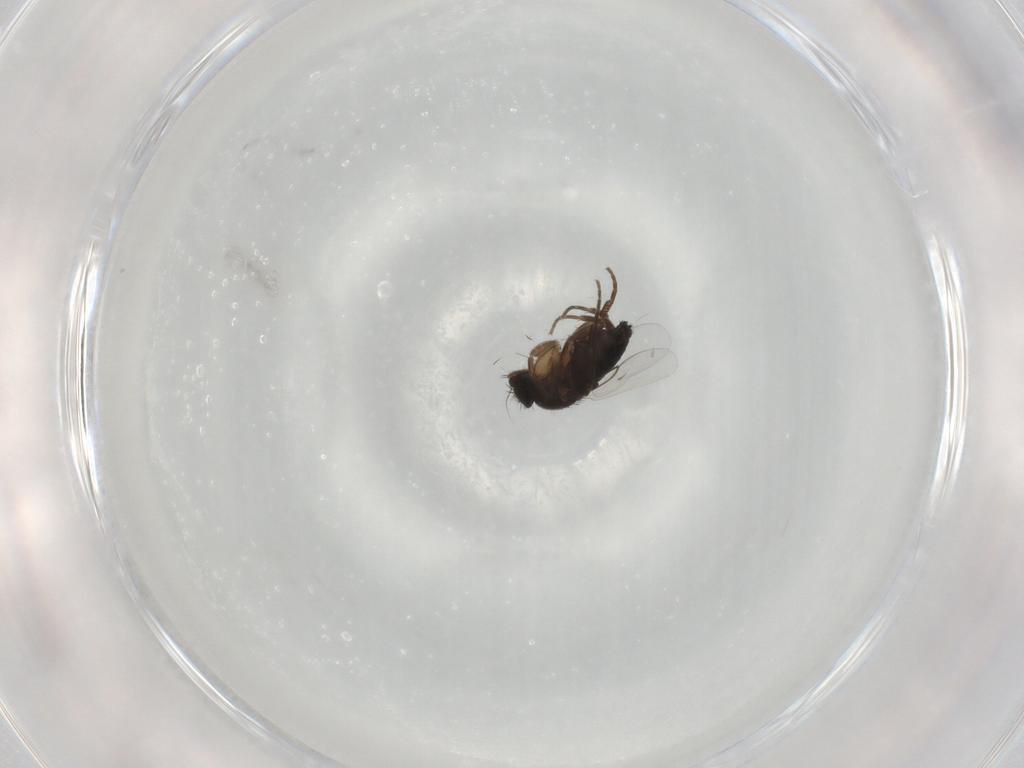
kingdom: Animalia
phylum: Arthropoda
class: Insecta
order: Diptera
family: Phoridae
